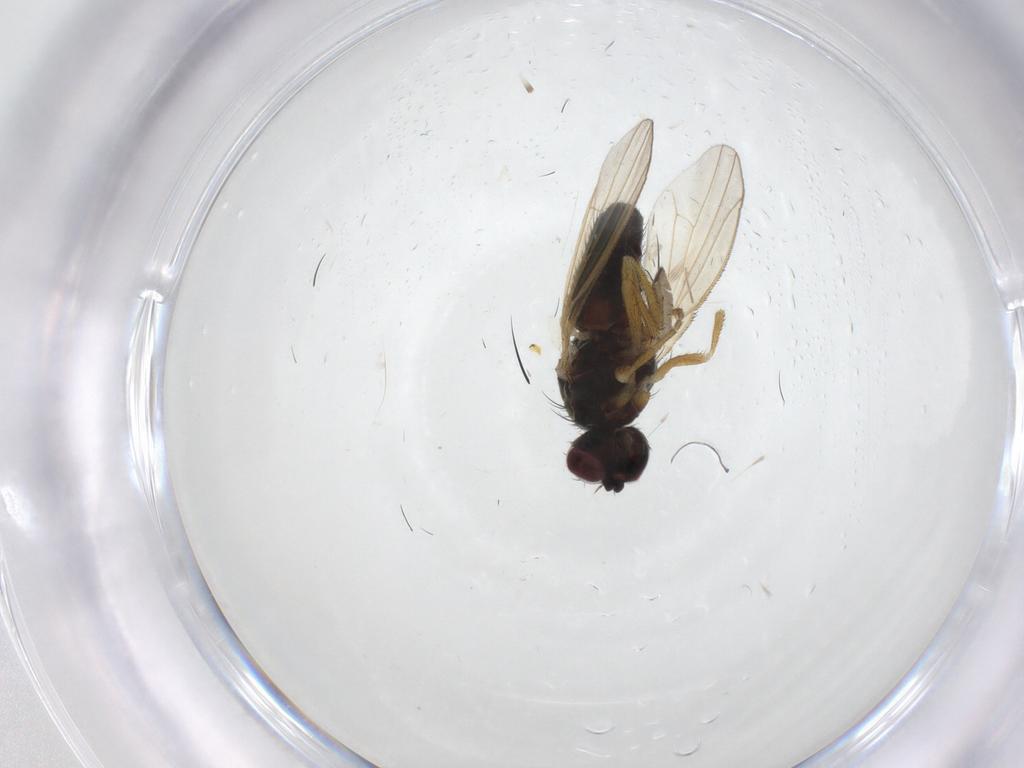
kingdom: Animalia
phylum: Arthropoda
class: Insecta
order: Diptera
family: Heleomyzidae
